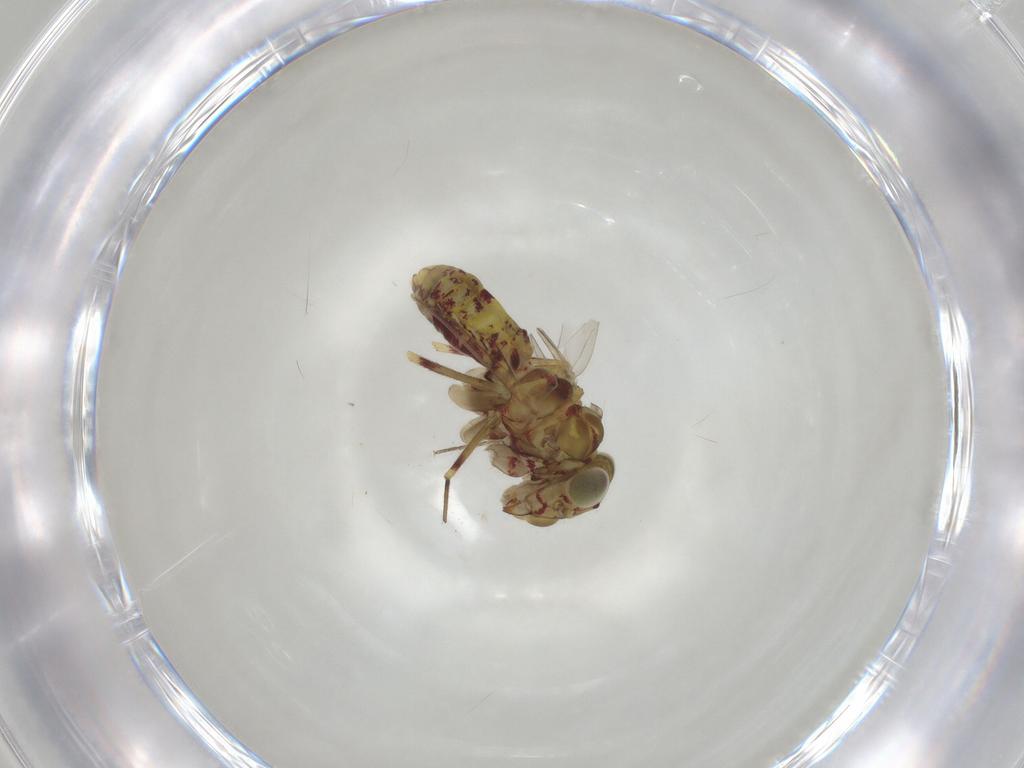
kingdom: Animalia
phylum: Arthropoda
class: Insecta
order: Psocodea
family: Philotarsidae
